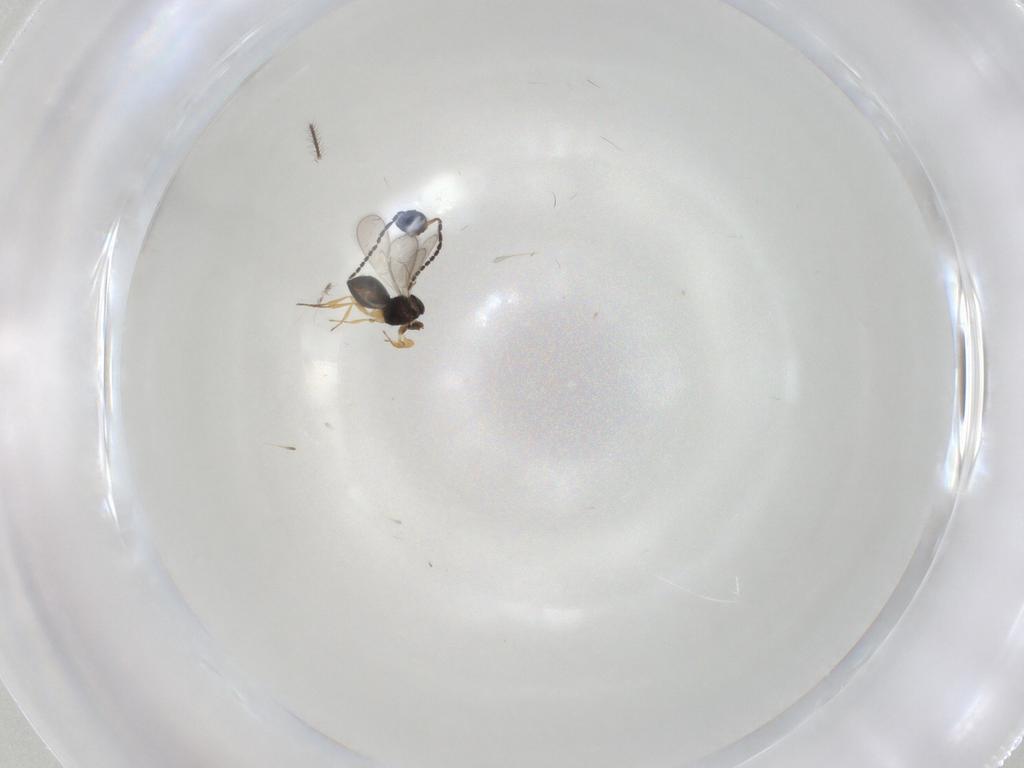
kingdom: Animalia
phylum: Arthropoda
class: Insecta
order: Hymenoptera
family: Scelionidae
